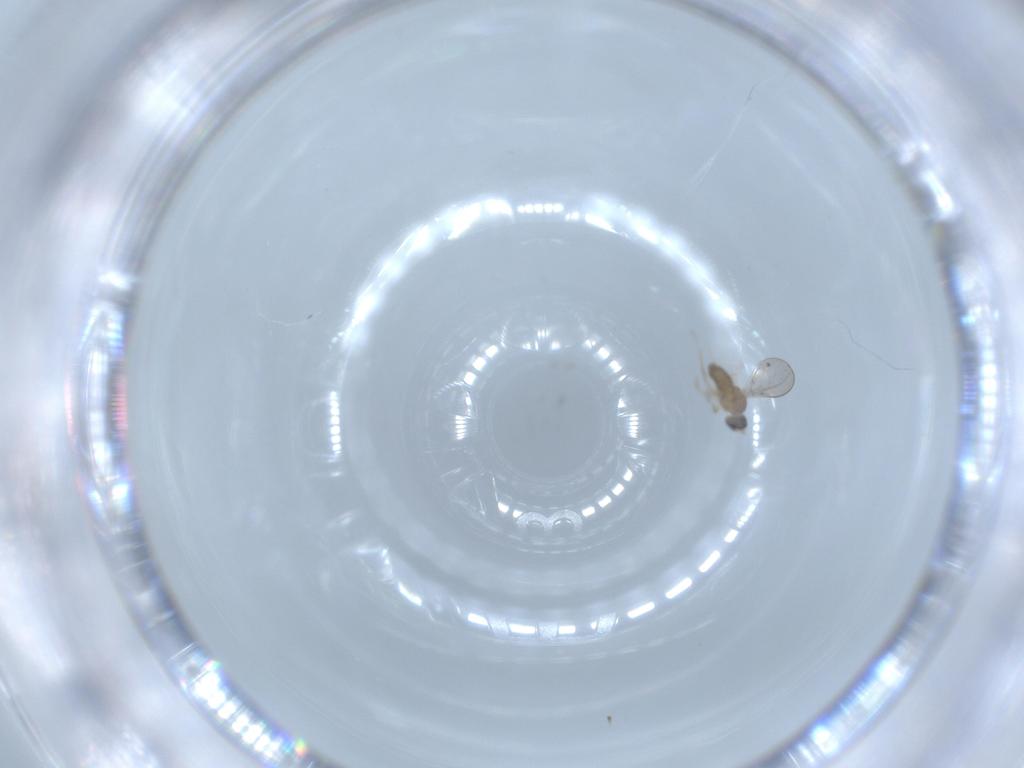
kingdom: Animalia
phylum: Arthropoda
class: Insecta
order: Diptera
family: Cecidomyiidae
